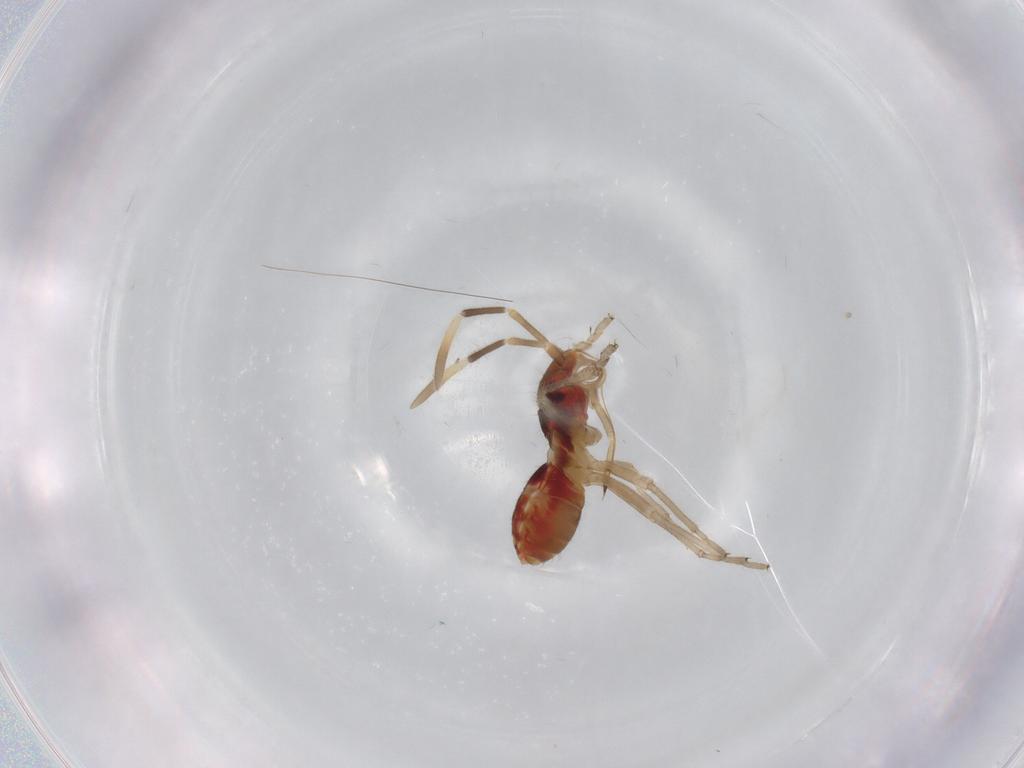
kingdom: Animalia
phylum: Arthropoda
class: Insecta
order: Hemiptera
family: Rhyparochromidae
